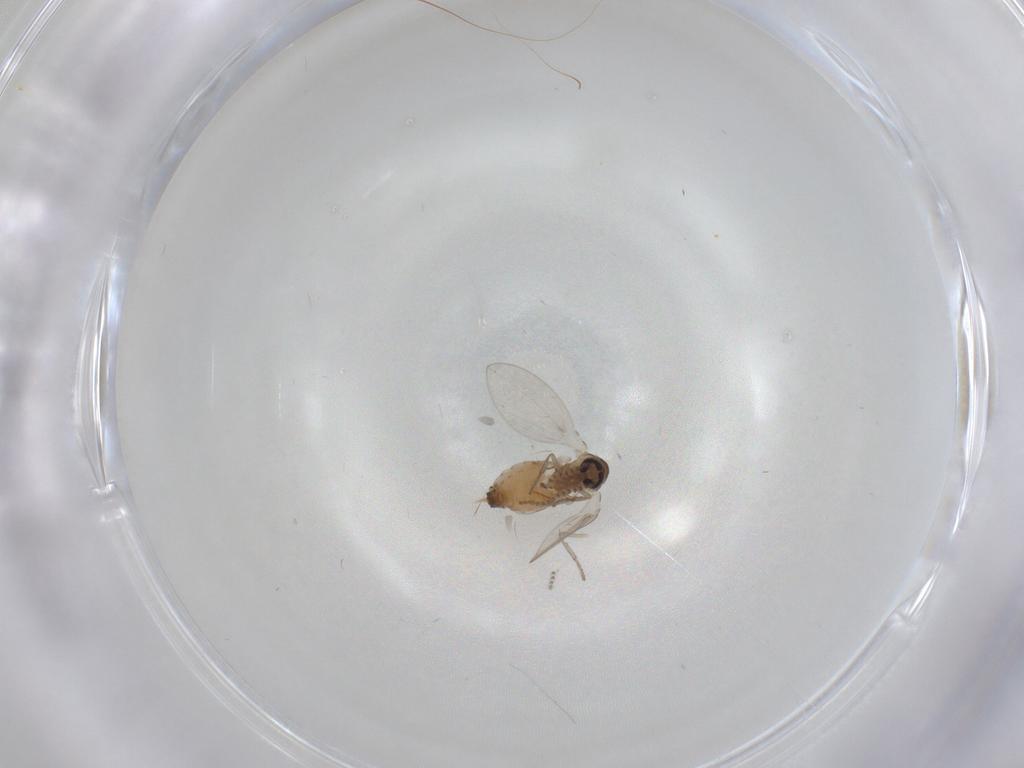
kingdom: Animalia
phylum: Arthropoda
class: Insecta
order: Diptera
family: Psychodidae
